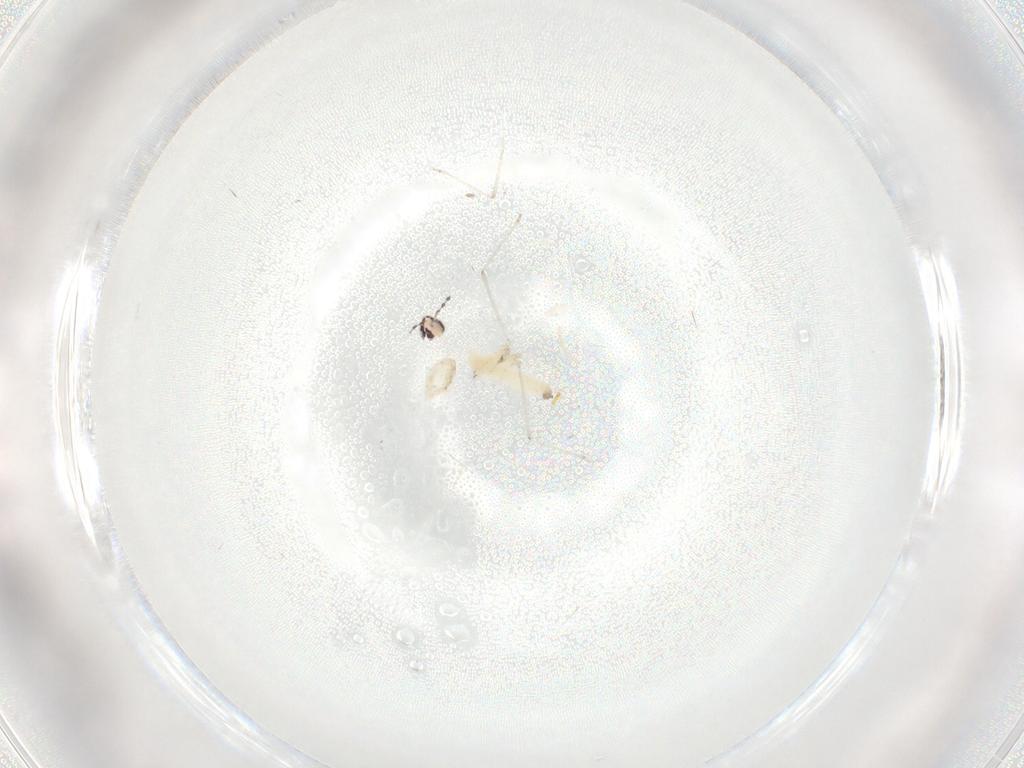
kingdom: Animalia
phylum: Arthropoda
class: Insecta
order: Diptera
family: Cecidomyiidae
